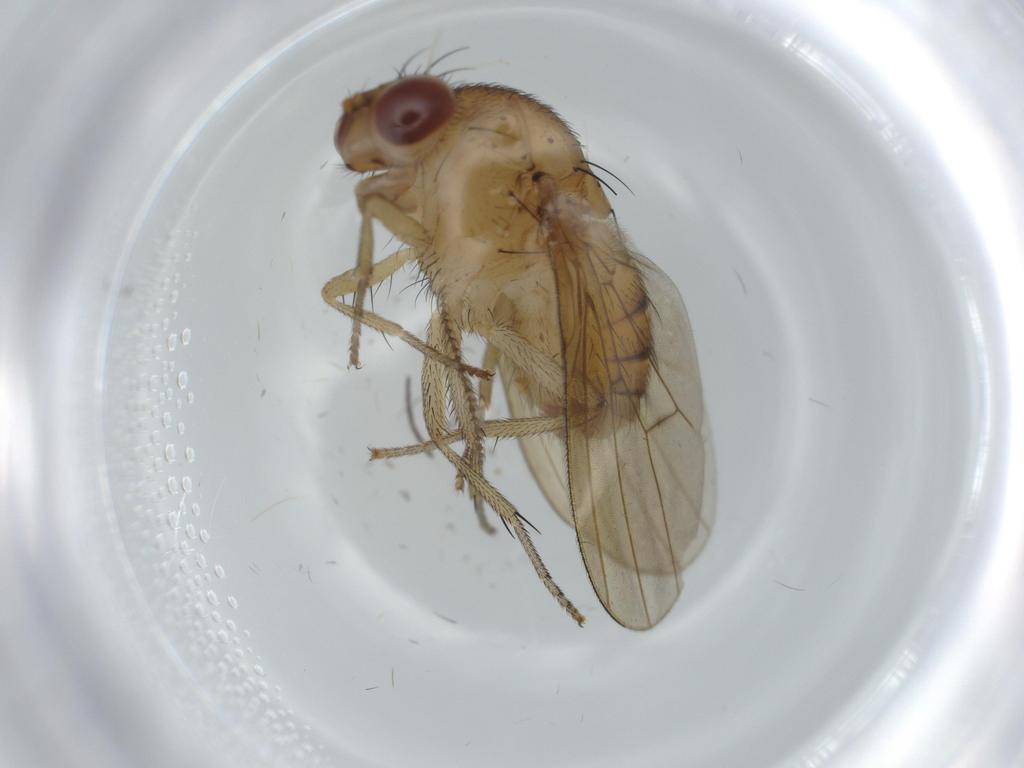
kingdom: Animalia
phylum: Arthropoda
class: Insecta
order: Diptera
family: Cecidomyiidae
